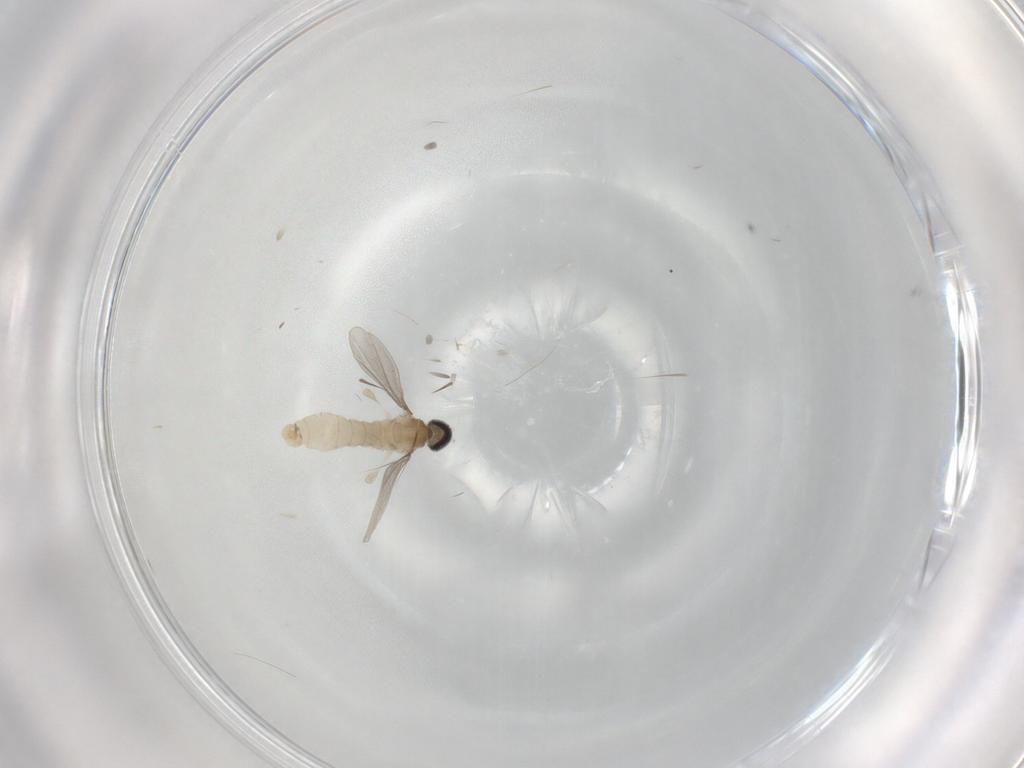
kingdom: Animalia
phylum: Arthropoda
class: Insecta
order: Diptera
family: Cecidomyiidae
